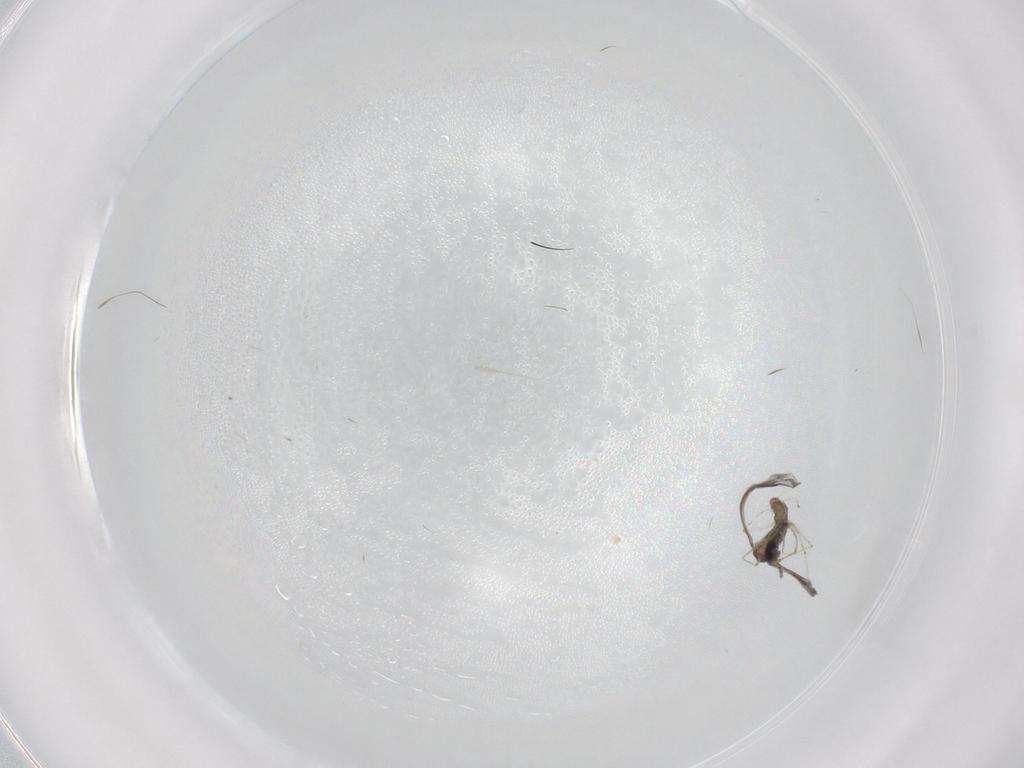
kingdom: Animalia
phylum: Arthropoda
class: Insecta
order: Diptera
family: Cecidomyiidae
